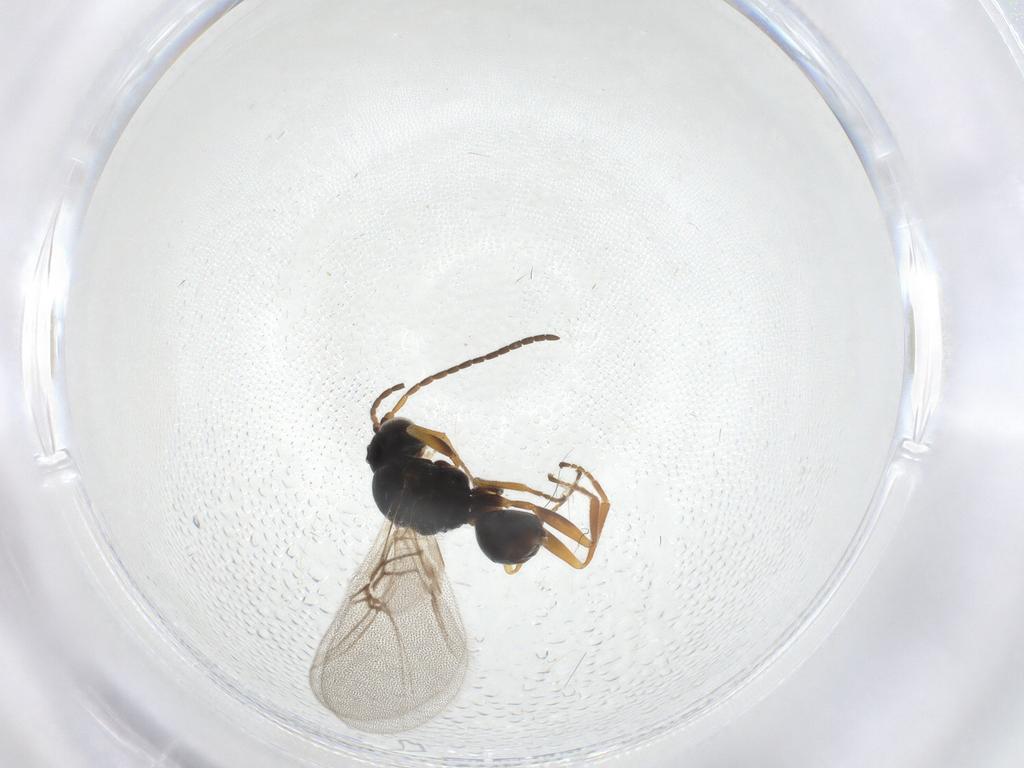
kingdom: Animalia
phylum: Arthropoda
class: Insecta
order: Hymenoptera
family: Cynipidae
